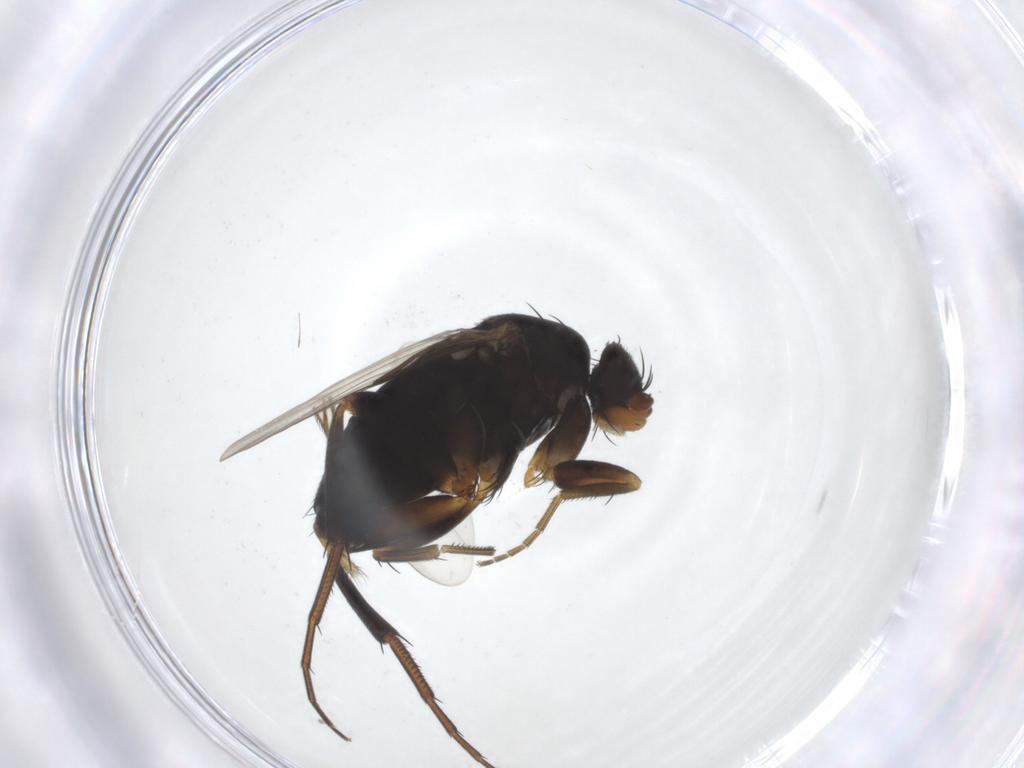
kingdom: Animalia
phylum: Arthropoda
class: Insecta
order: Diptera
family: Phoridae
